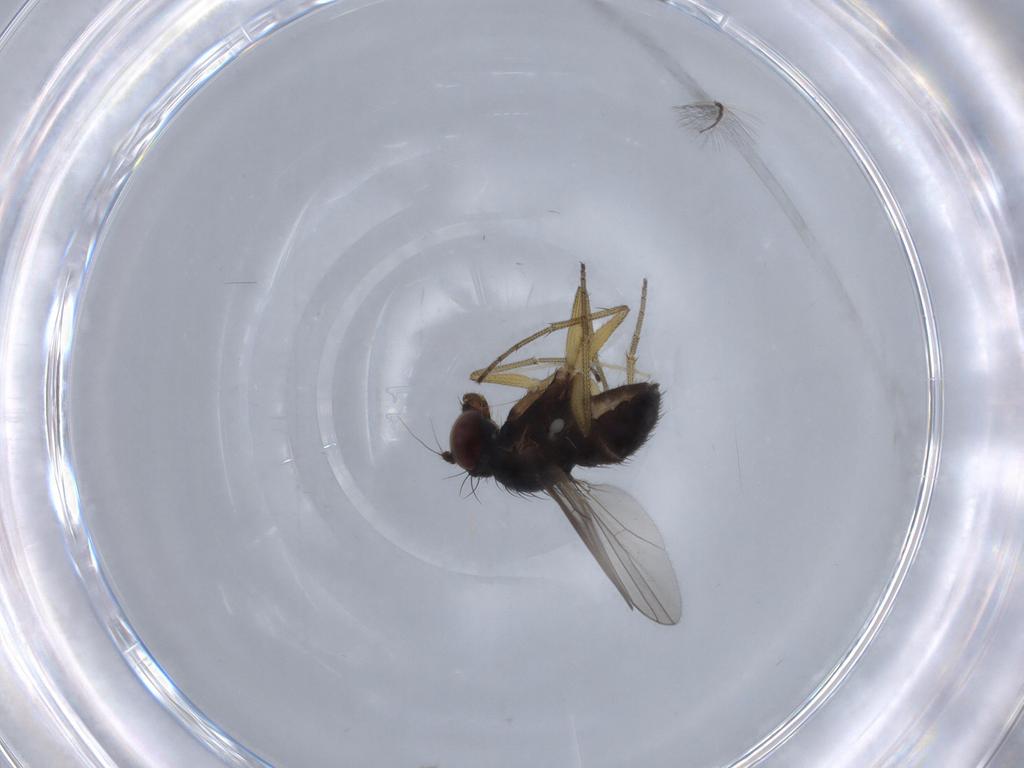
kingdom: Animalia
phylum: Arthropoda
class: Insecta
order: Diptera
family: Dolichopodidae
